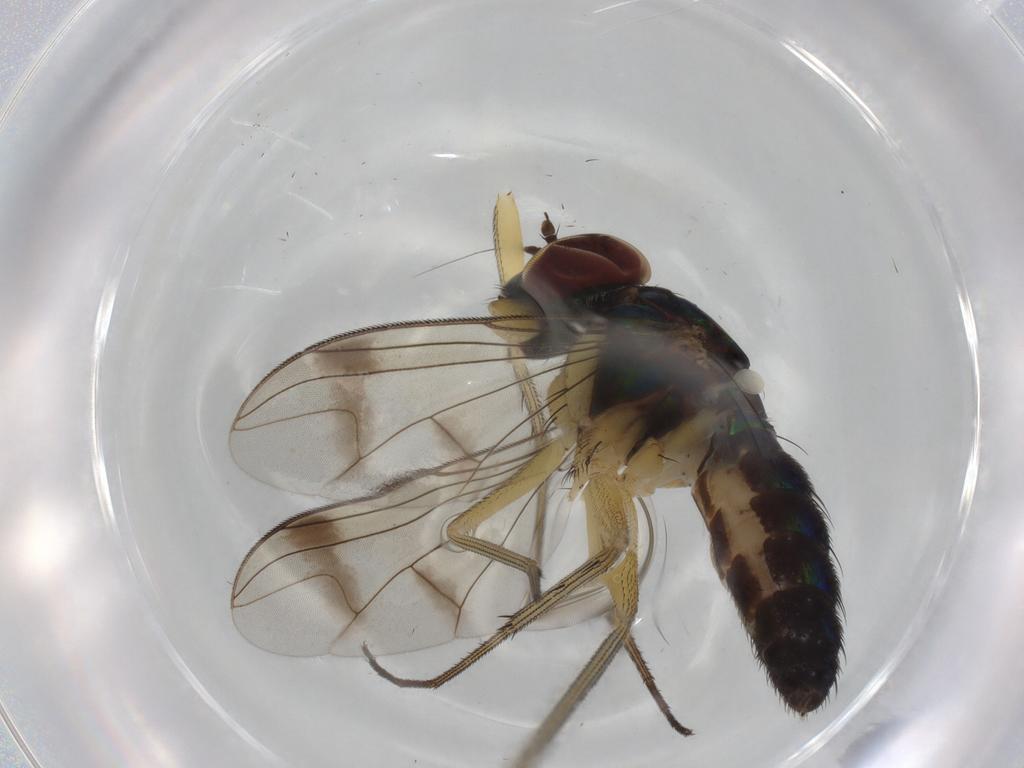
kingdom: Animalia
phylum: Arthropoda
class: Insecta
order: Diptera
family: Dolichopodidae
